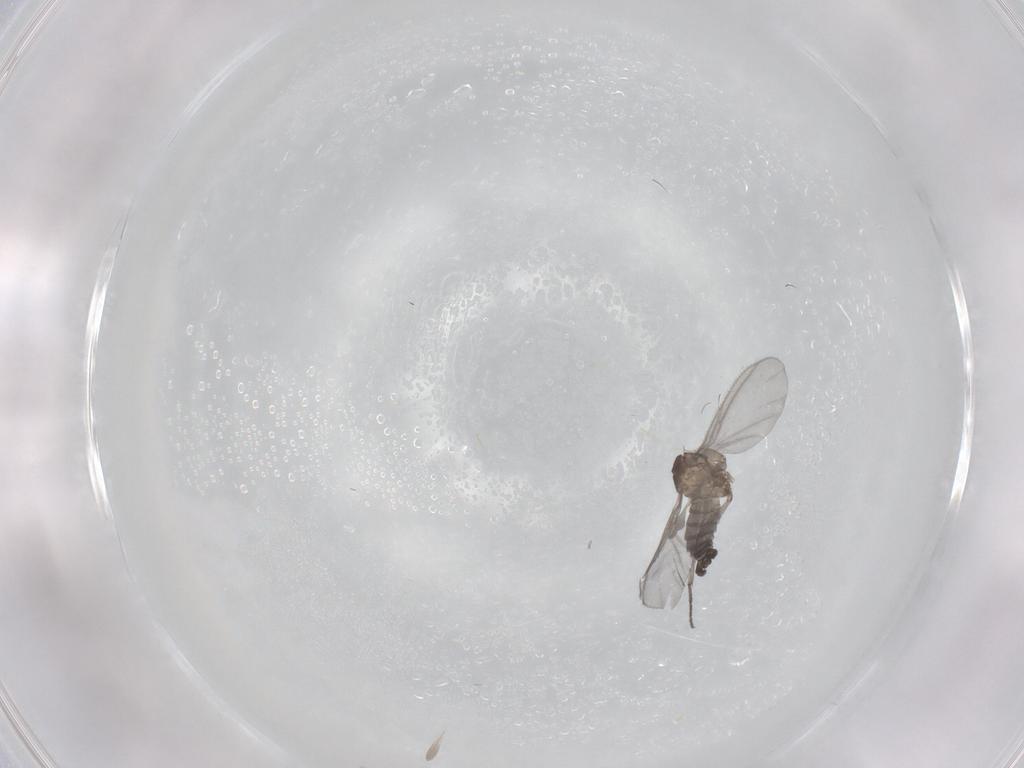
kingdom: Animalia
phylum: Arthropoda
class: Insecta
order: Diptera
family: Sciaridae
